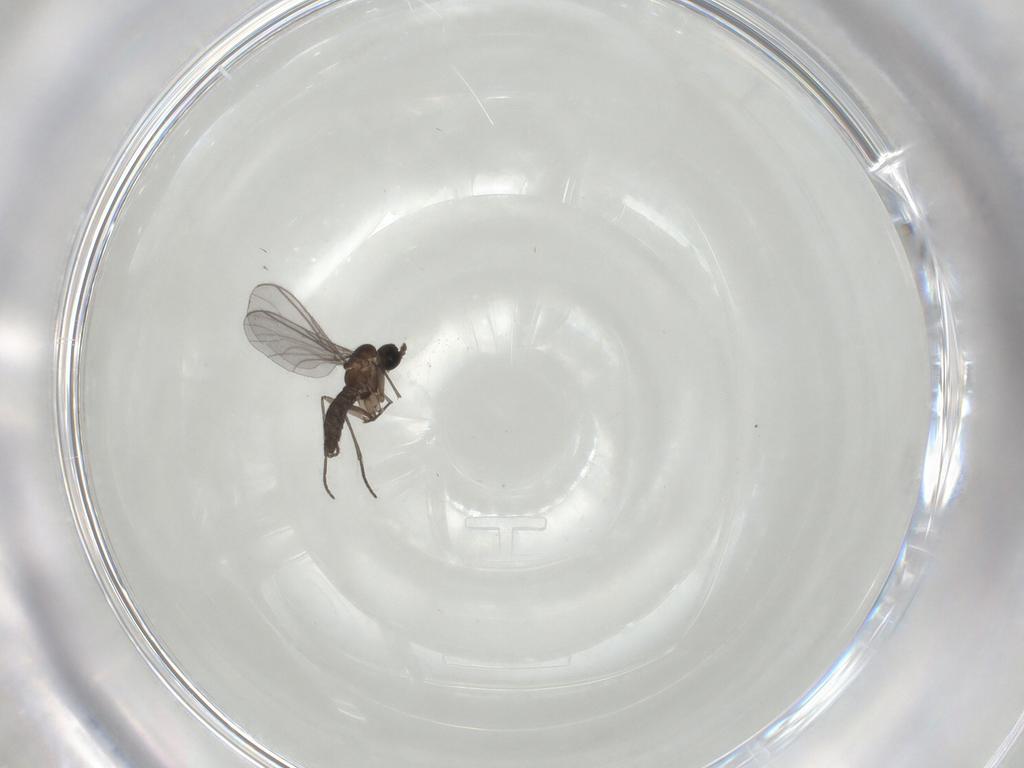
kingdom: Animalia
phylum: Arthropoda
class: Insecta
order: Diptera
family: Sciaridae
